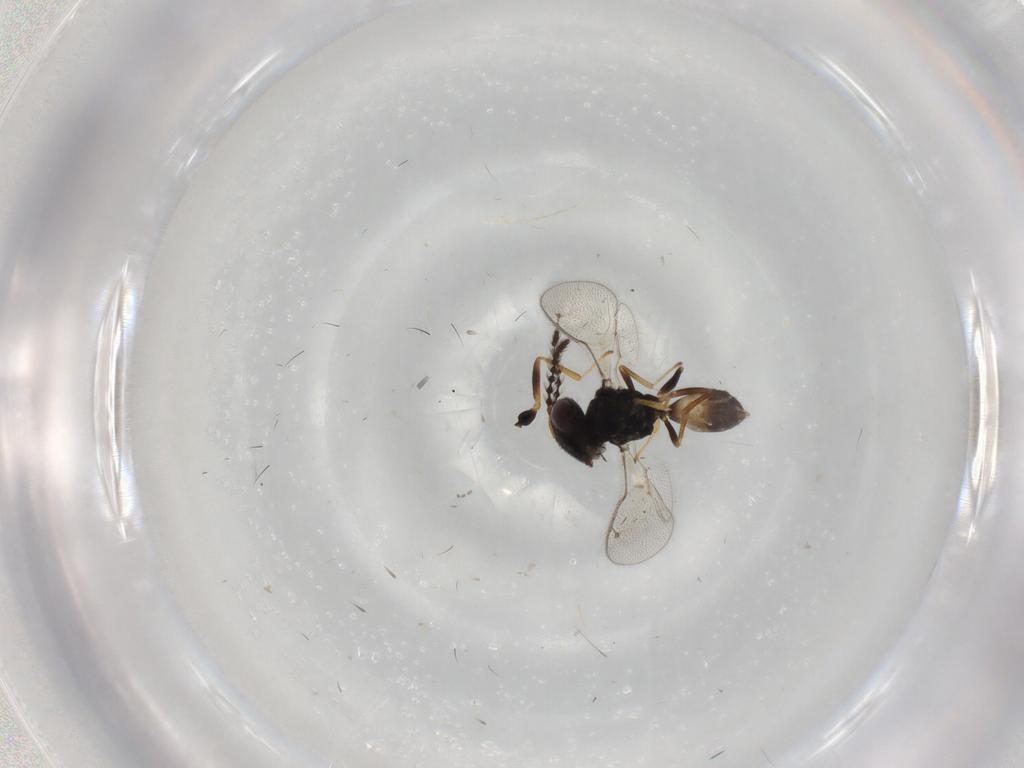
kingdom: Animalia
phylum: Arthropoda
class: Insecta
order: Hymenoptera
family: Pteromalidae
